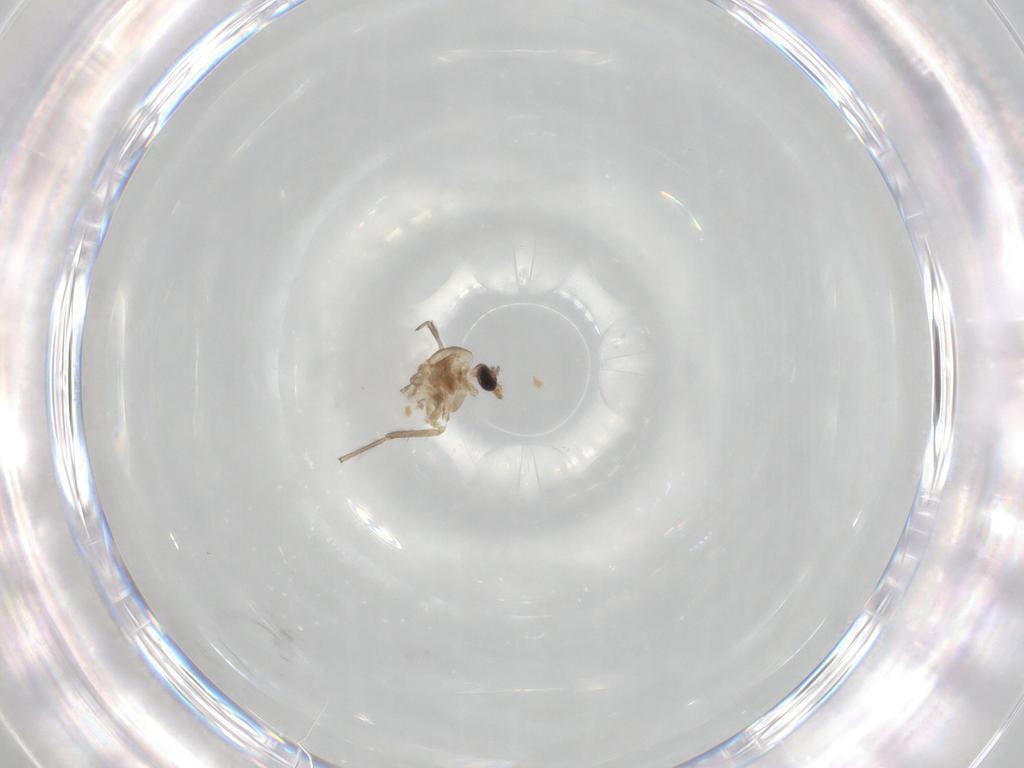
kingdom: Animalia
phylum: Arthropoda
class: Insecta
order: Diptera
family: Chironomidae
